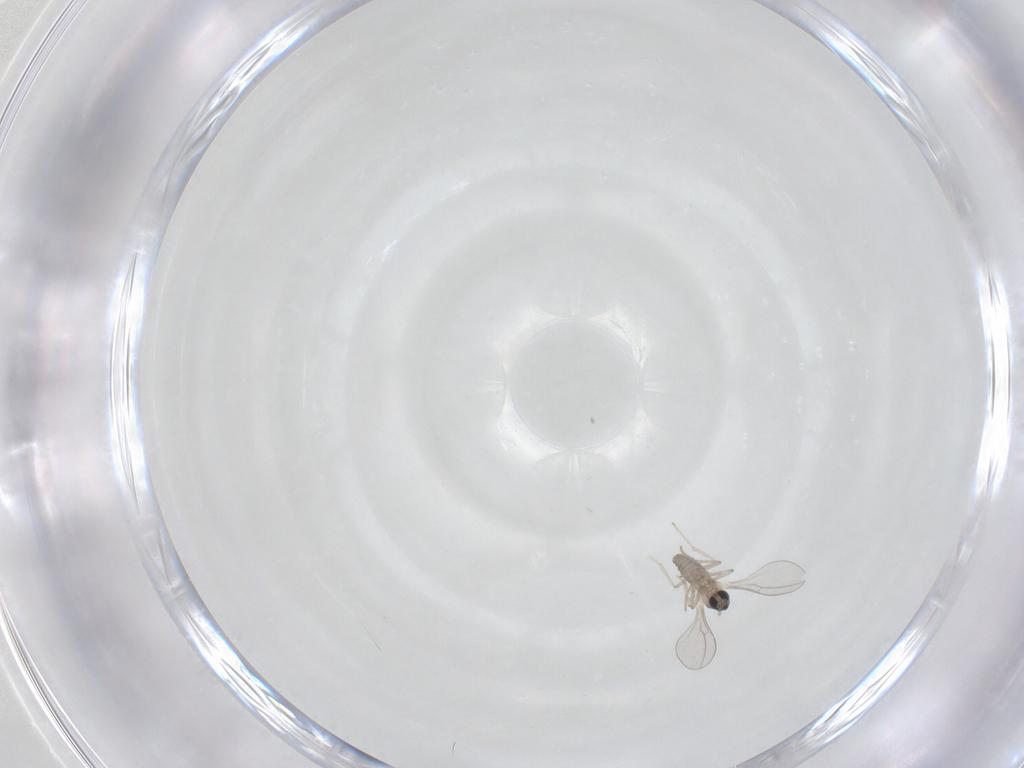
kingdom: Animalia
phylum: Arthropoda
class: Insecta
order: Diptera
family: Cecidomyiidae
